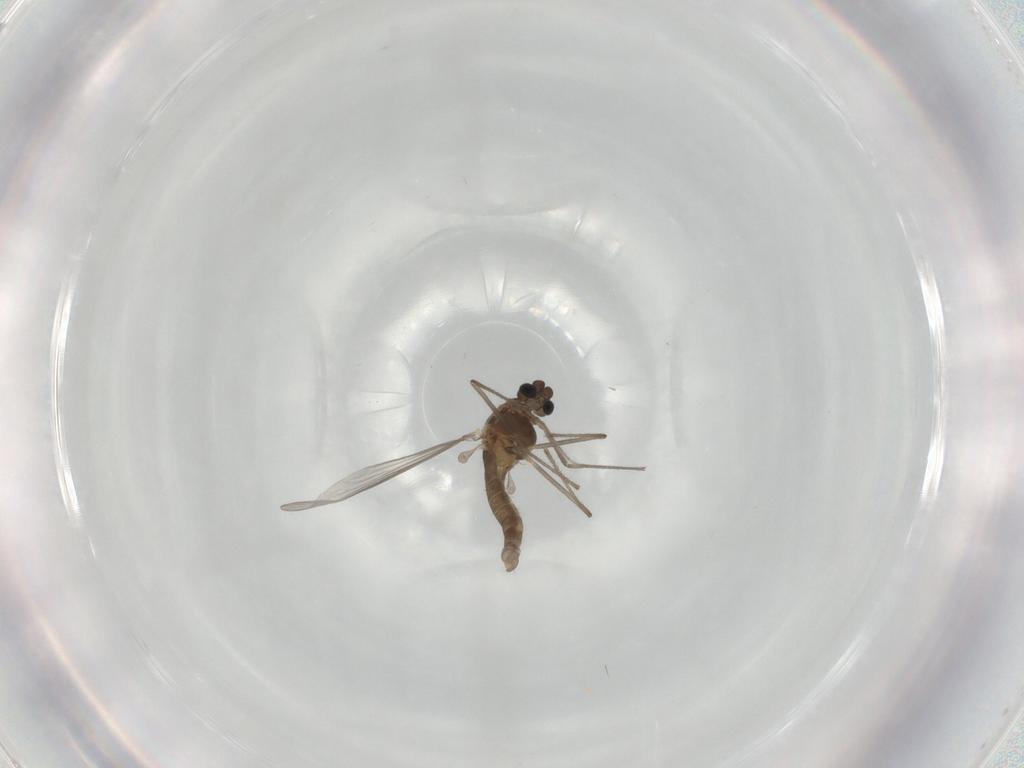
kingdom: Animalia
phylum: Arthropoda
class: Insecta
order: Diptera
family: Chironomidae
